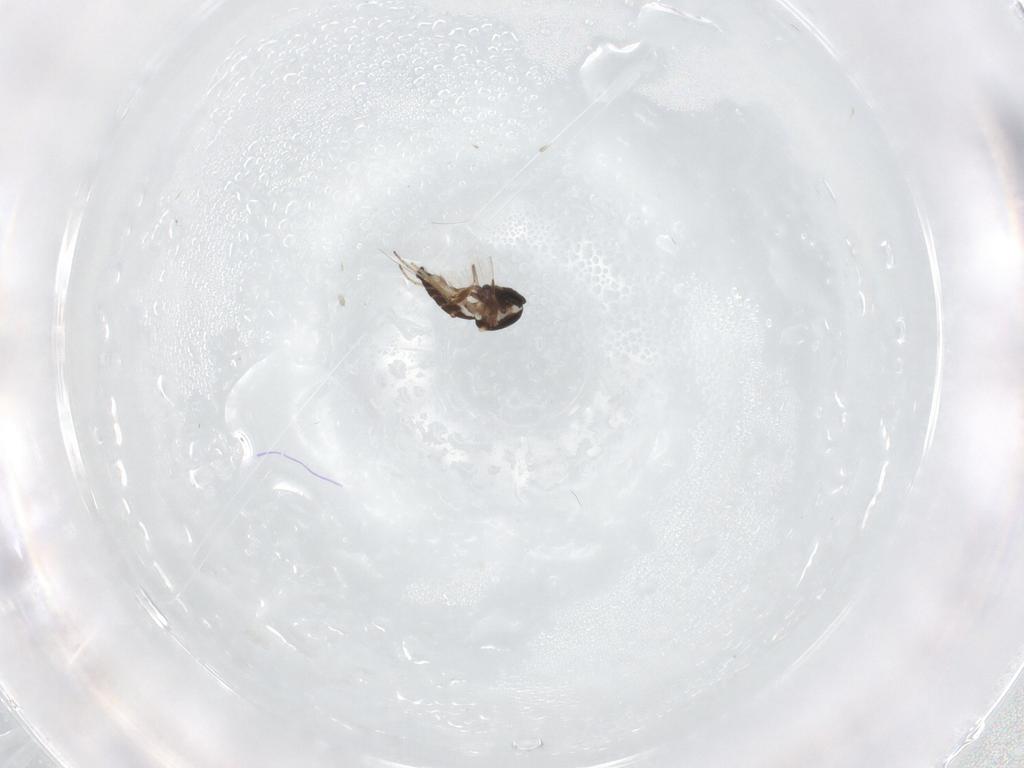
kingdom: Animalia
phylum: Arthropoda
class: Insecta
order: Diptera
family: Ceratopogonidae
